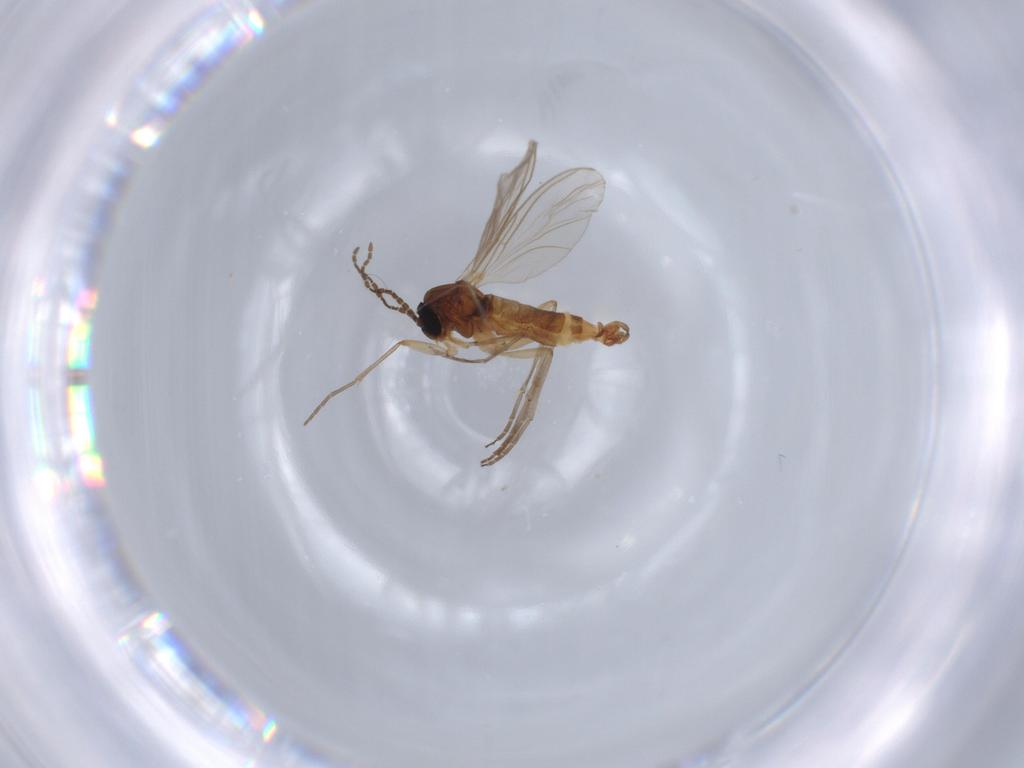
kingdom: Animalia
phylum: Arthropoda
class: Insecta
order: Diptera
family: Sciaridae
